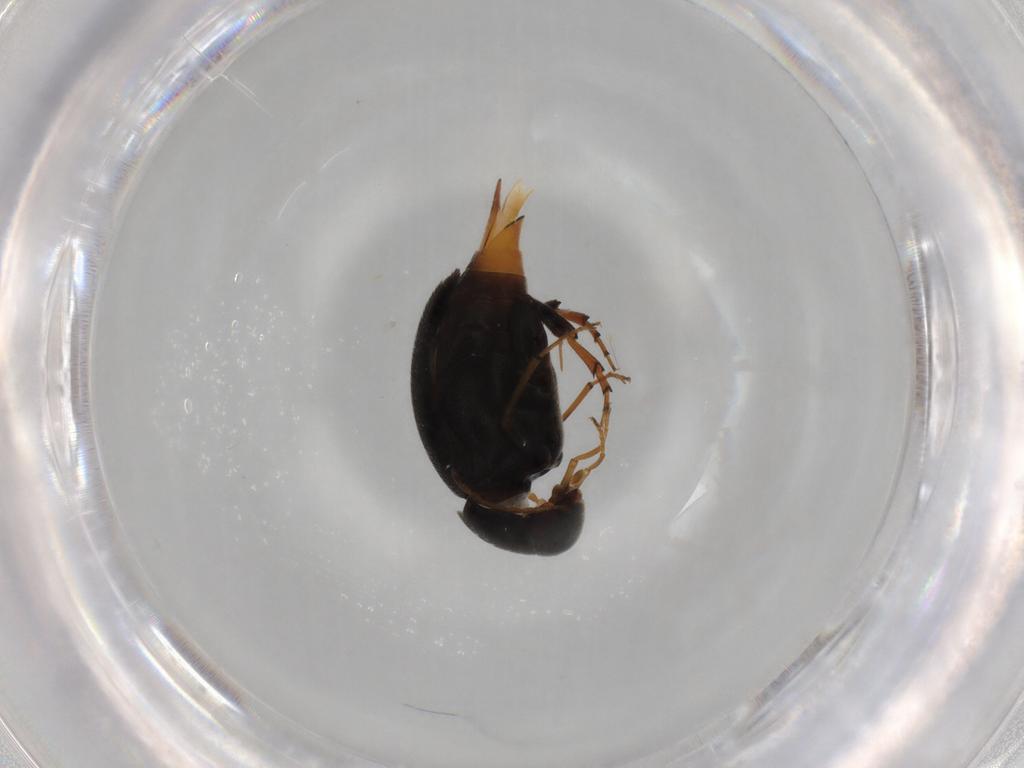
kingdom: Animalia
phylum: Arthropoda
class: Insecta
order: Coleoptera
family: Mordellidae
